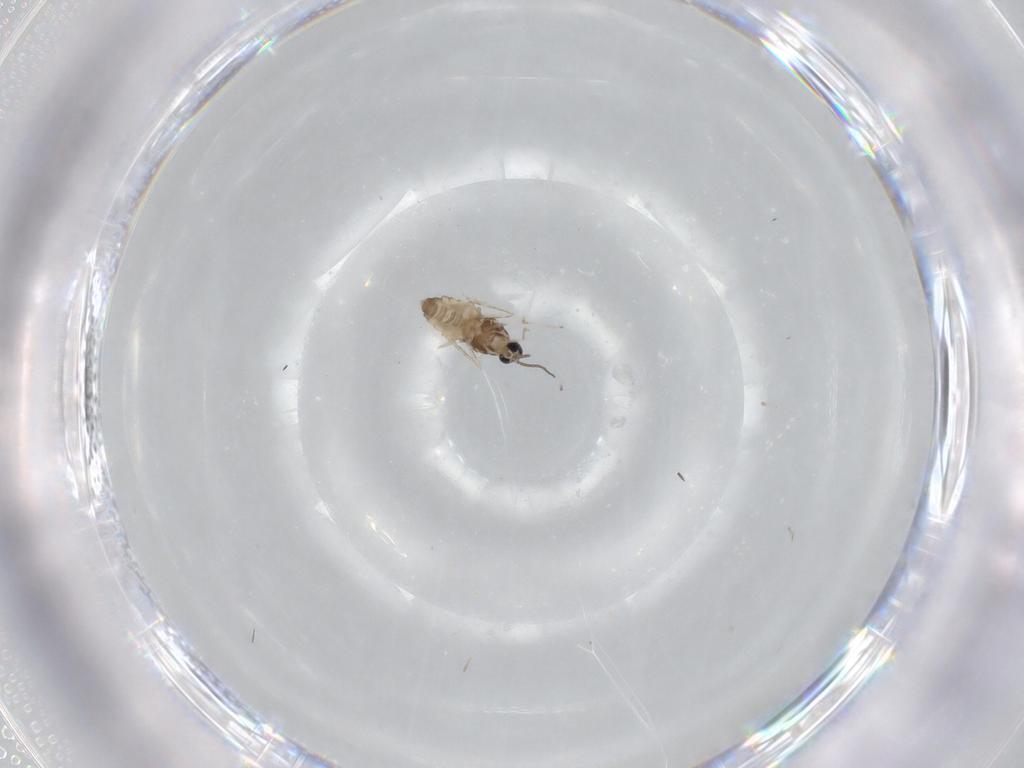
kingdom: Animalia
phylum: Arthropoda
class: Insecta
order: Diptera
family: Cecidomyiidae
